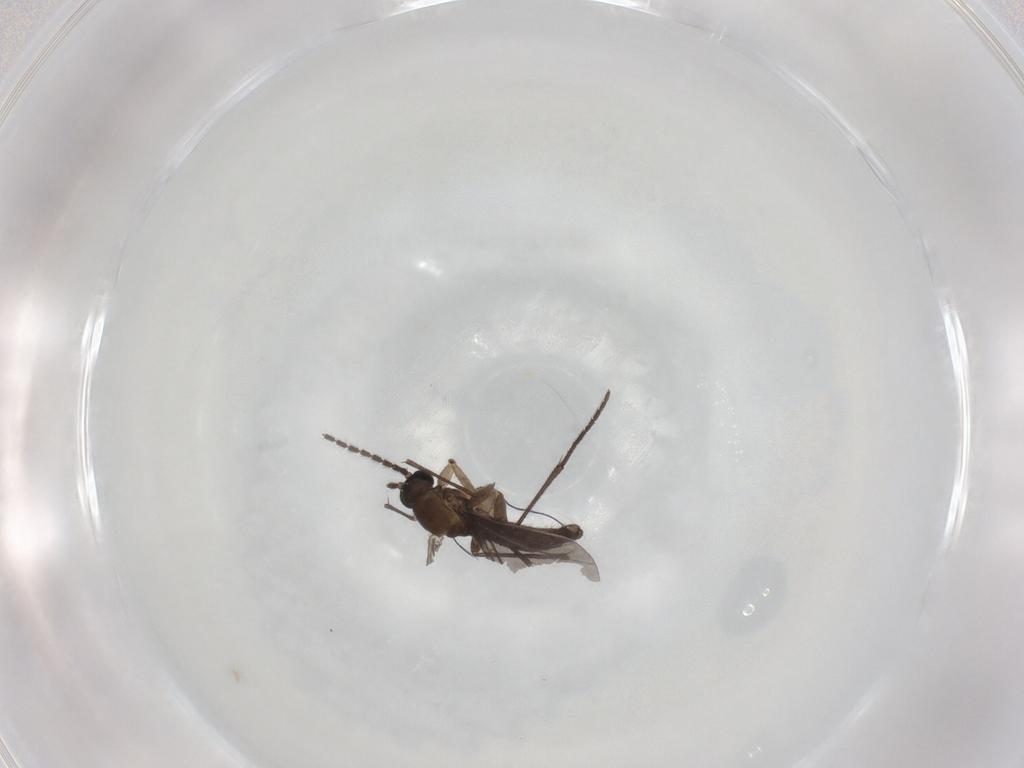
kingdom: Animalia
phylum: Arthropoda
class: Insecta
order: Diptera
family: Sciaridae
